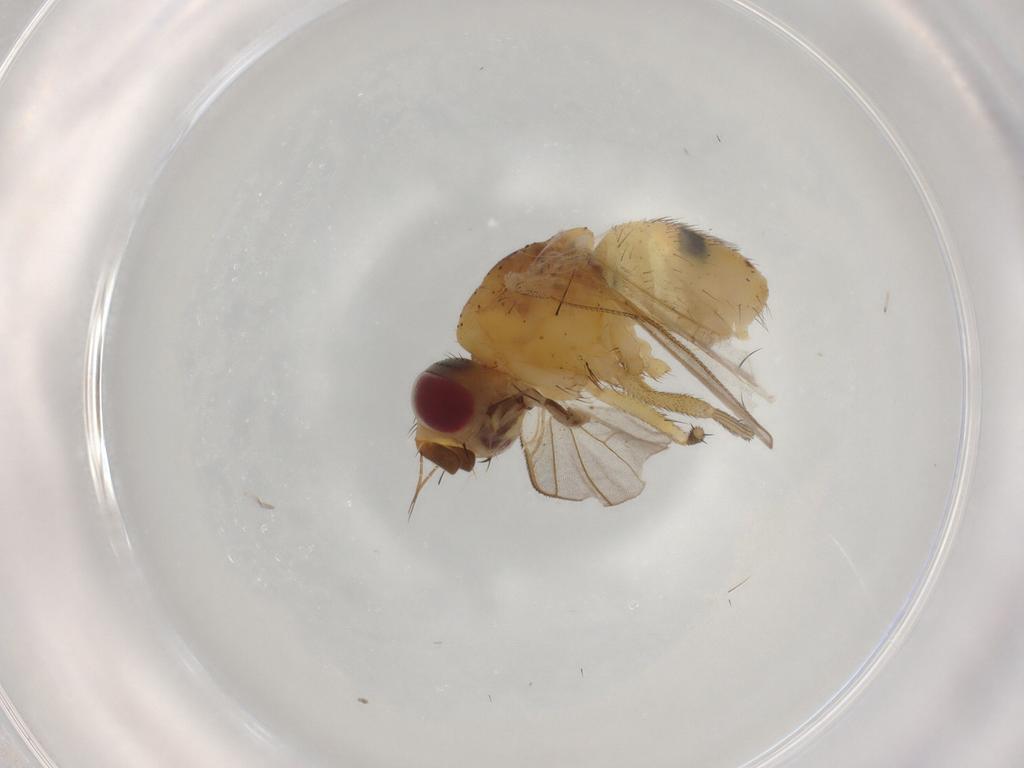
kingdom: Animalia
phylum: Arthropoda
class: Insecta
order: Diptera
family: Muscidae
